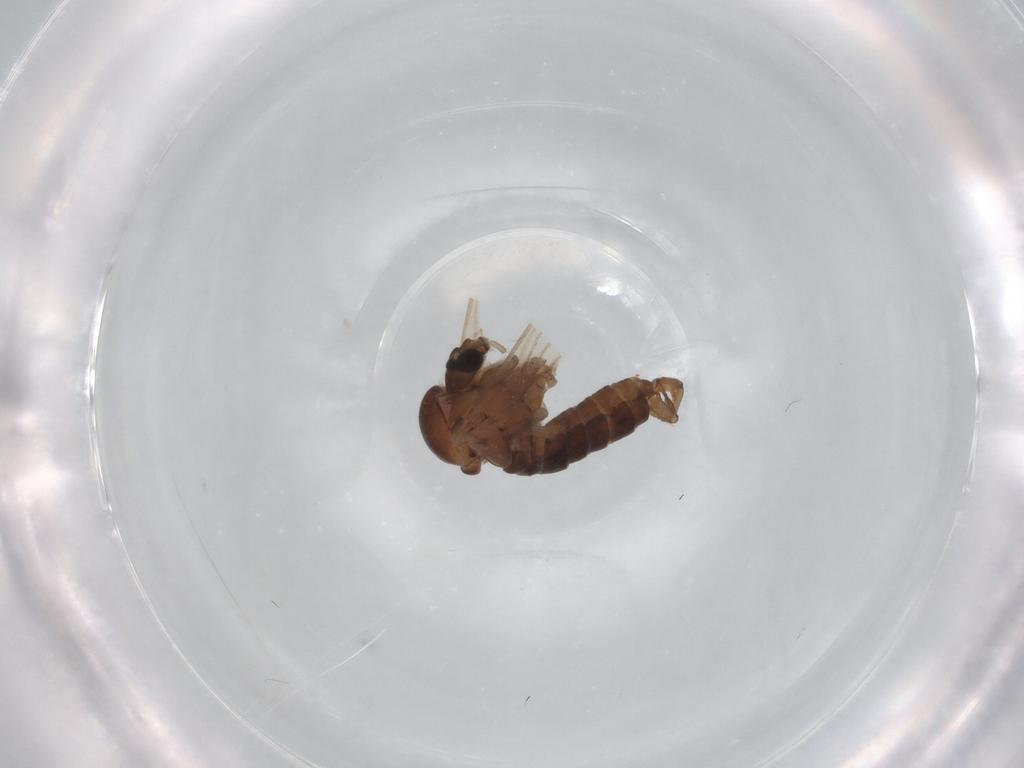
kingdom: Animalia
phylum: Arthropoda
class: Insecta
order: Diptera
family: Psychodidae
